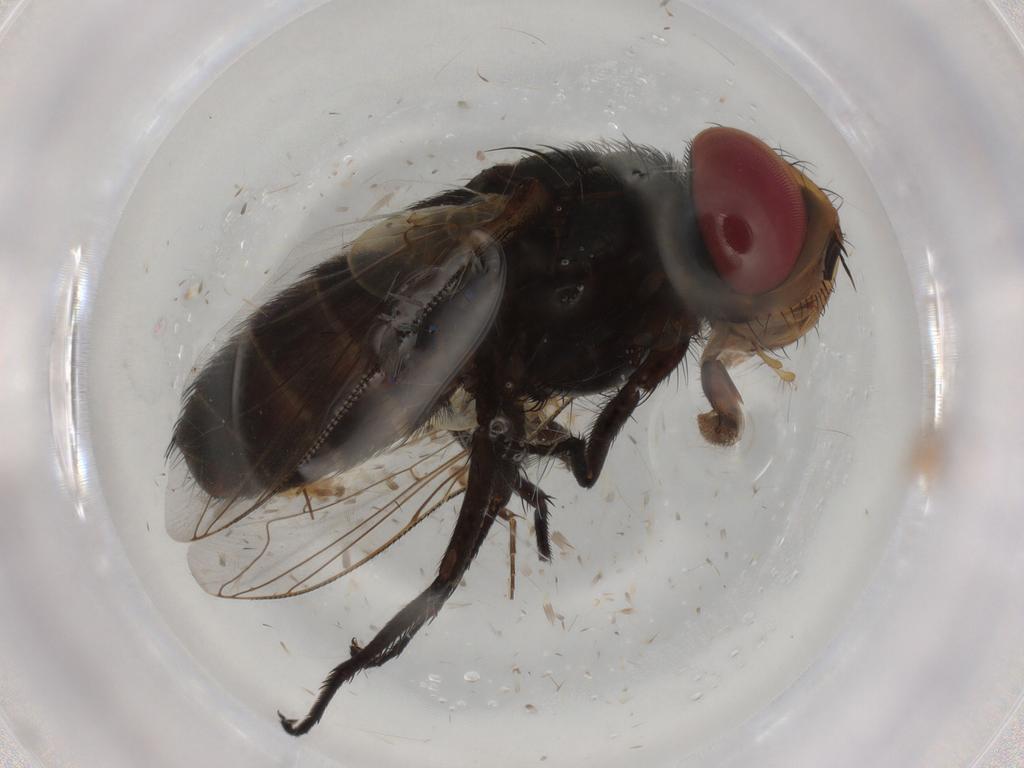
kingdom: Animalia
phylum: Arthropoda
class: Insecta
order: Diptera
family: Sarcophagidae
